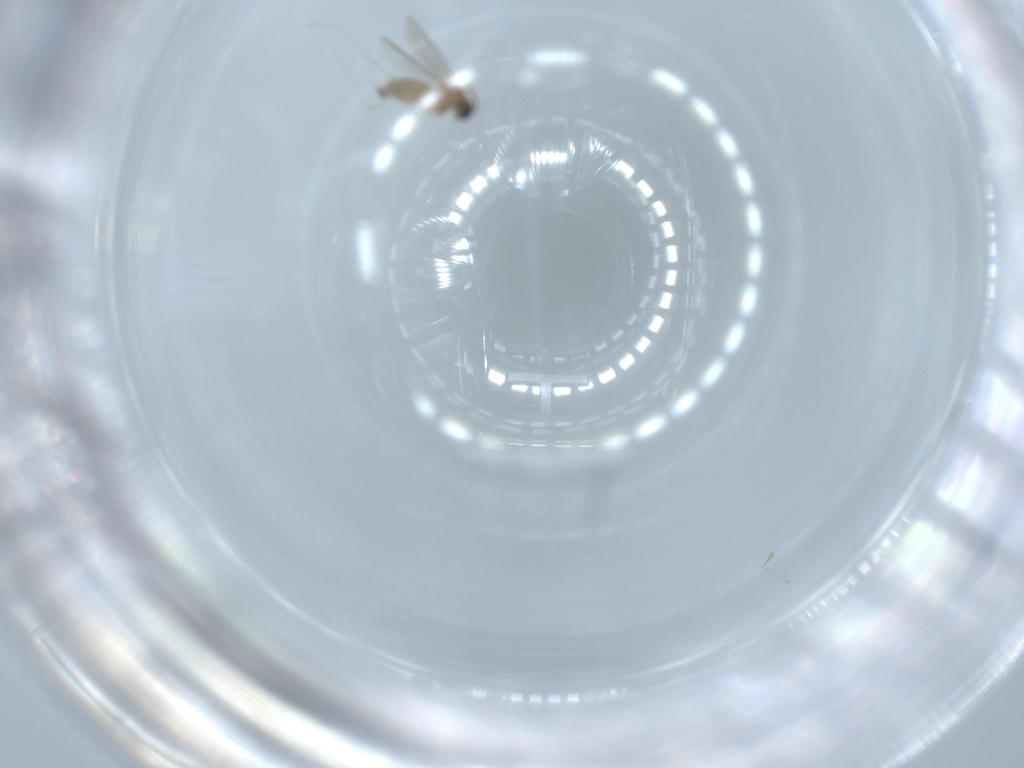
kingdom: Animalia
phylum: Arthropoda
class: Insecta
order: Diptera
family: Cecidomyiidae
